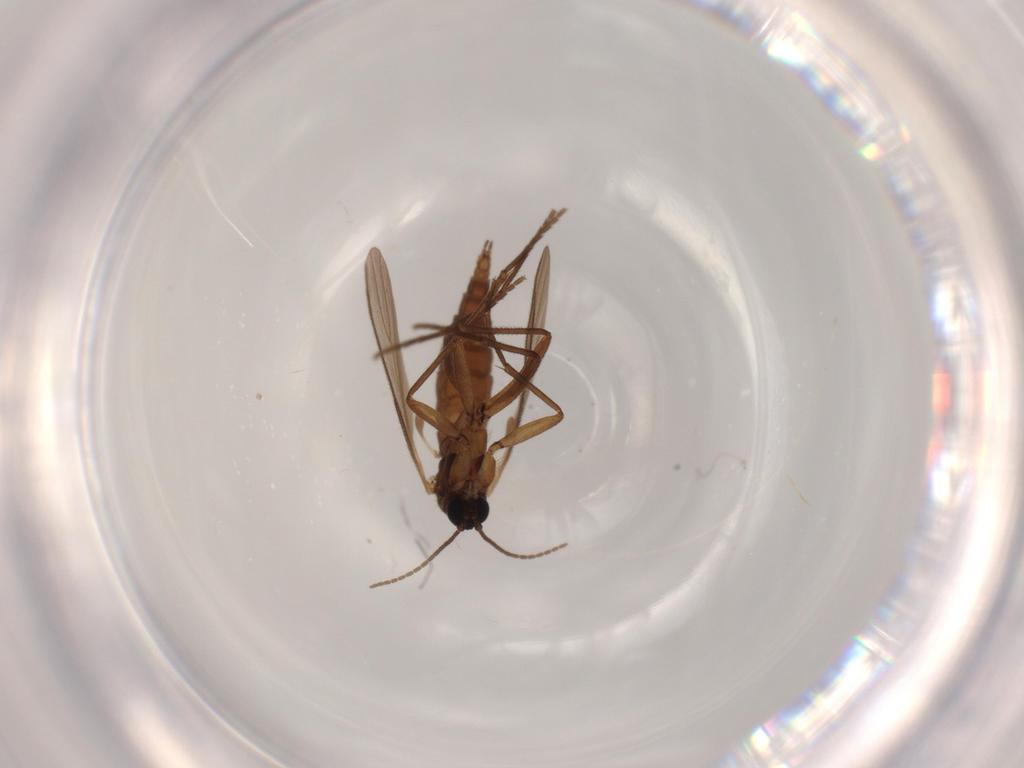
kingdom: Animalia
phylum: Arthropoda
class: Insecta
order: Diptera
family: Sciaridae
